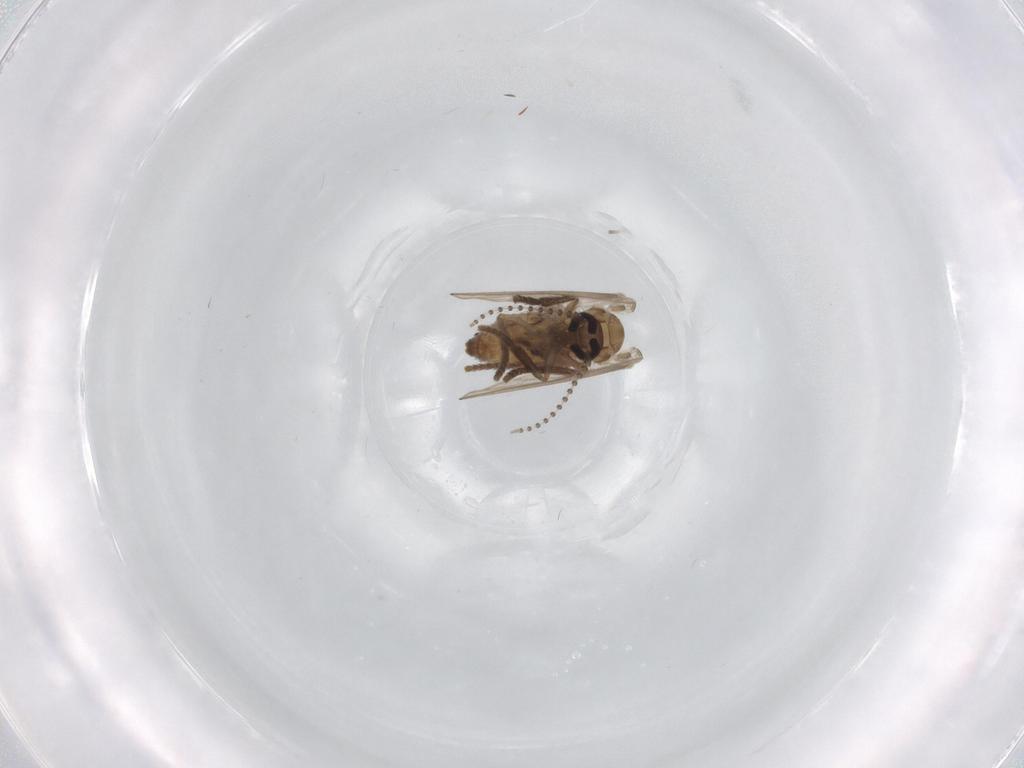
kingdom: Animalia
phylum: Arthropoda
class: Insecta
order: Diptera
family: Psychodidae
